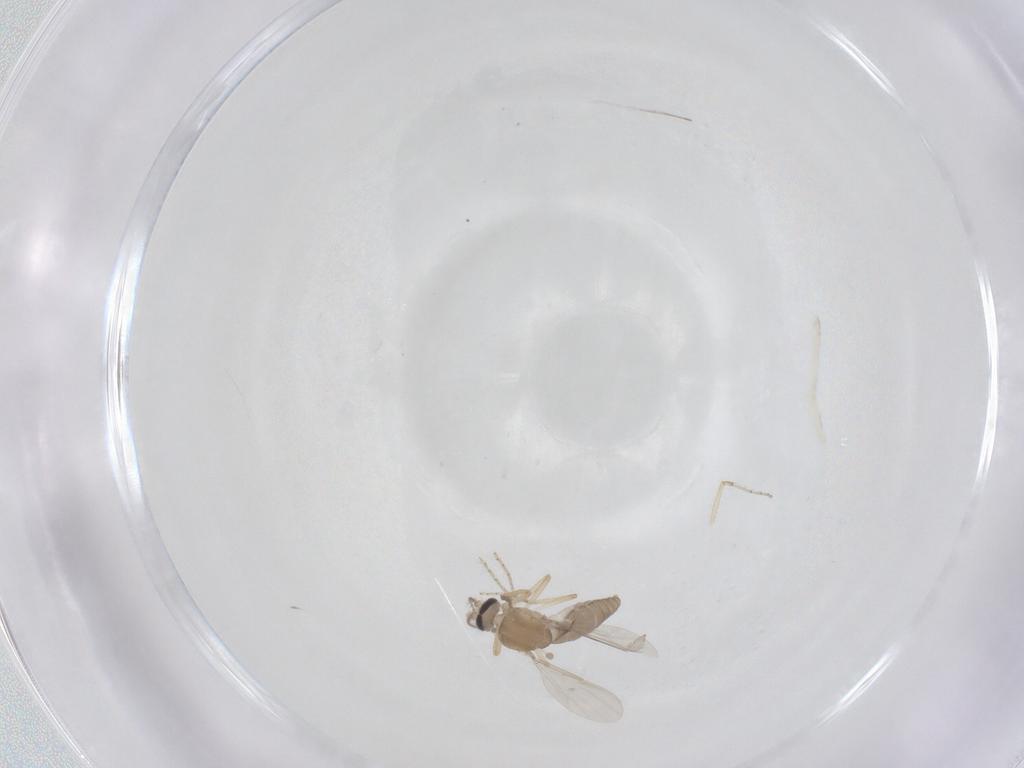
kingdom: Animalia
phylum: Arthropoda
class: Insecta
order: Diptera
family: Ceratopogonidae
